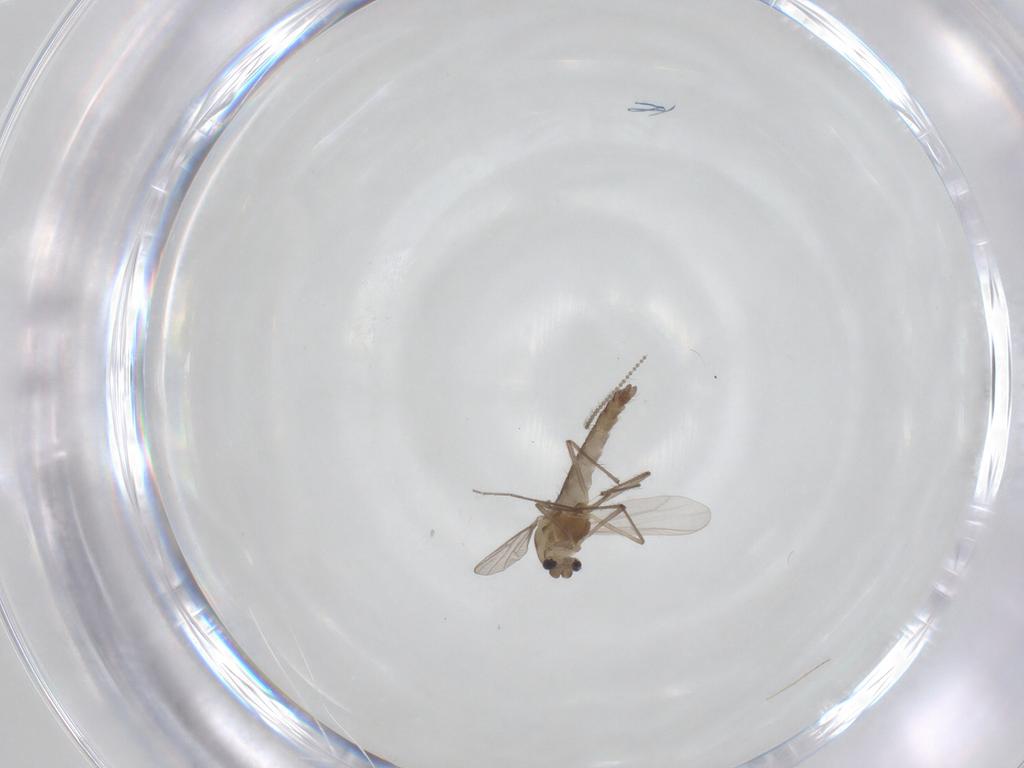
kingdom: Animalia
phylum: Arthropoda
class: Insecta
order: Diptera
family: Chironomidae
